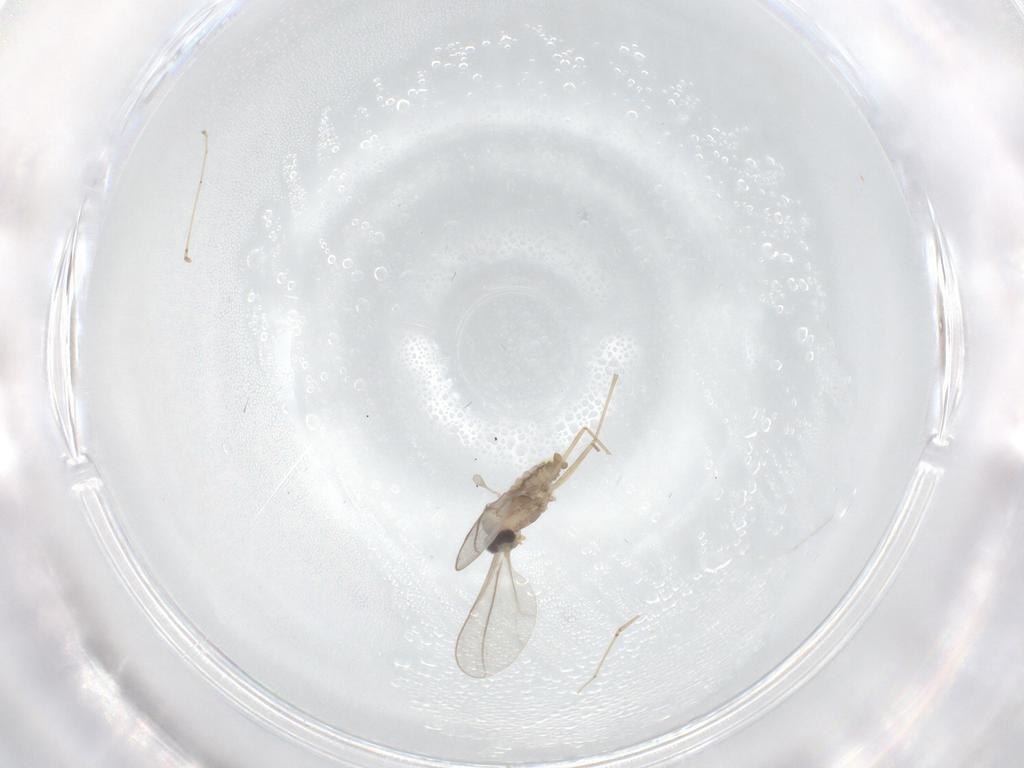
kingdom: Animalia
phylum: Arthropoda
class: Insecta
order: Diptera
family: Cecidomyiidae
